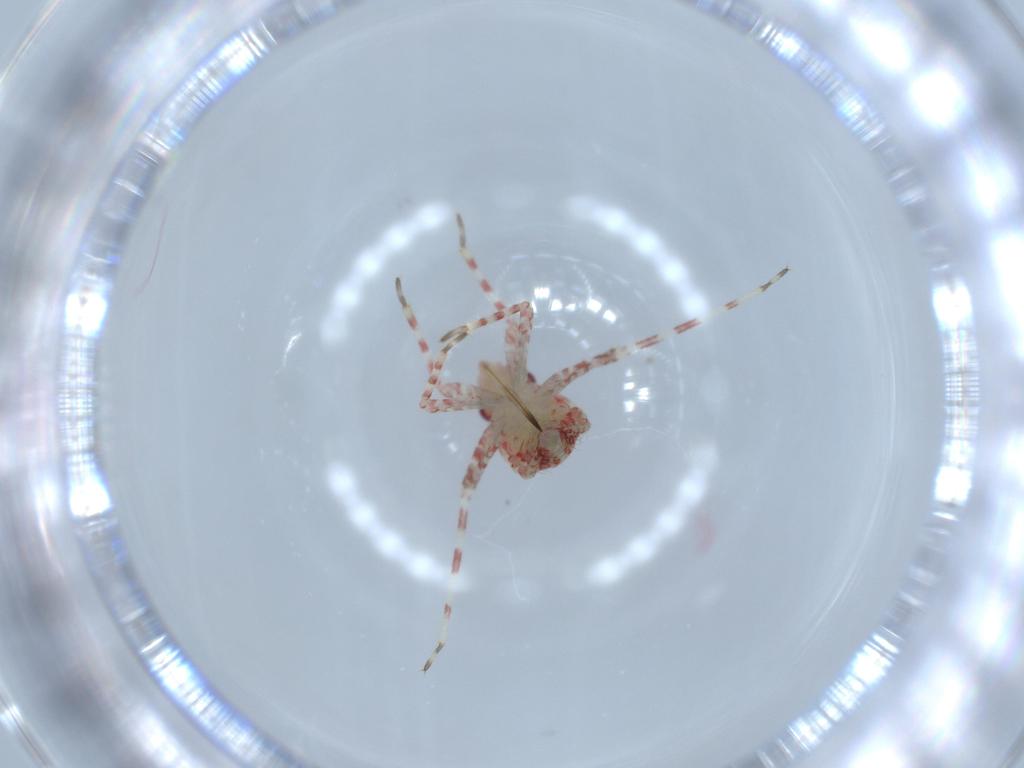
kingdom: Animalia
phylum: Arthropoda
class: Insecta
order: Hemiptera
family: Miridae
